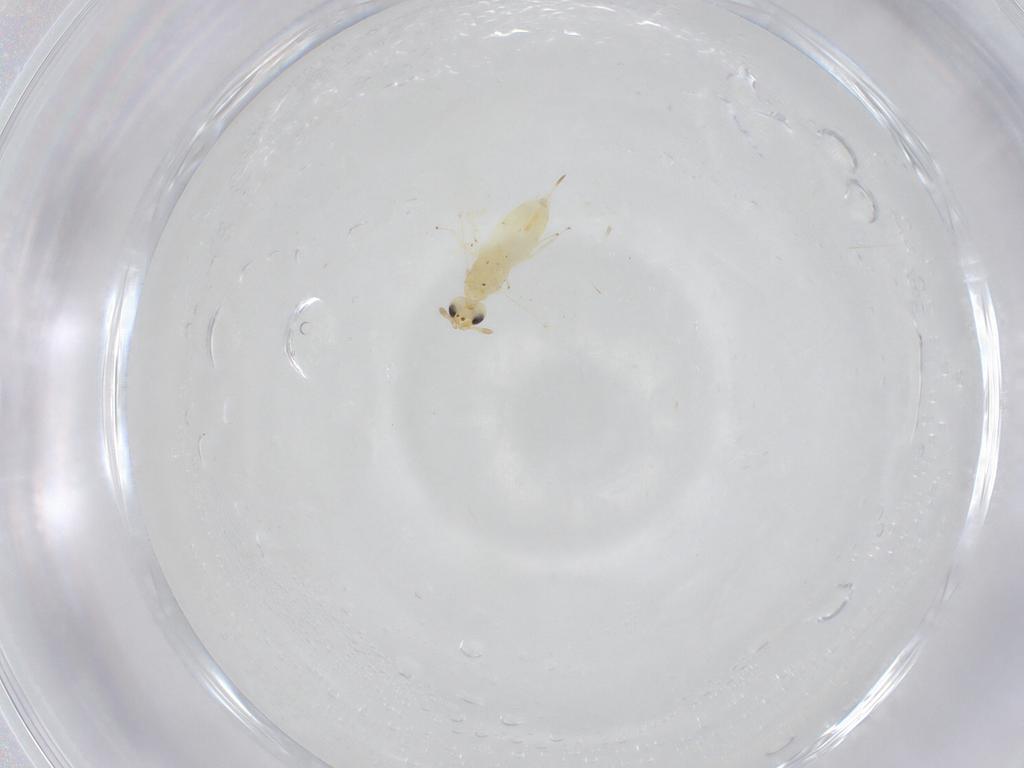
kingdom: Animalia
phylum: Arthropoda
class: Insecta
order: Hymenoptera
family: Encyrtidae
